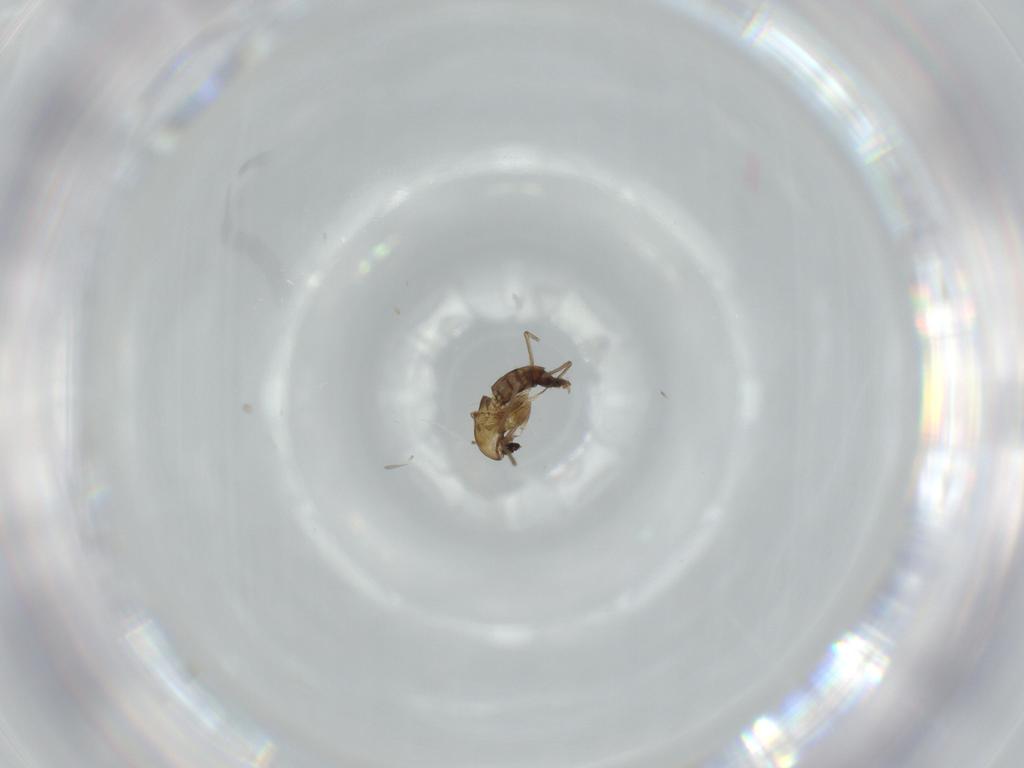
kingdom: Animalia
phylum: Arthropoda
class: Insecta
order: Diptera
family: Chironomidae
